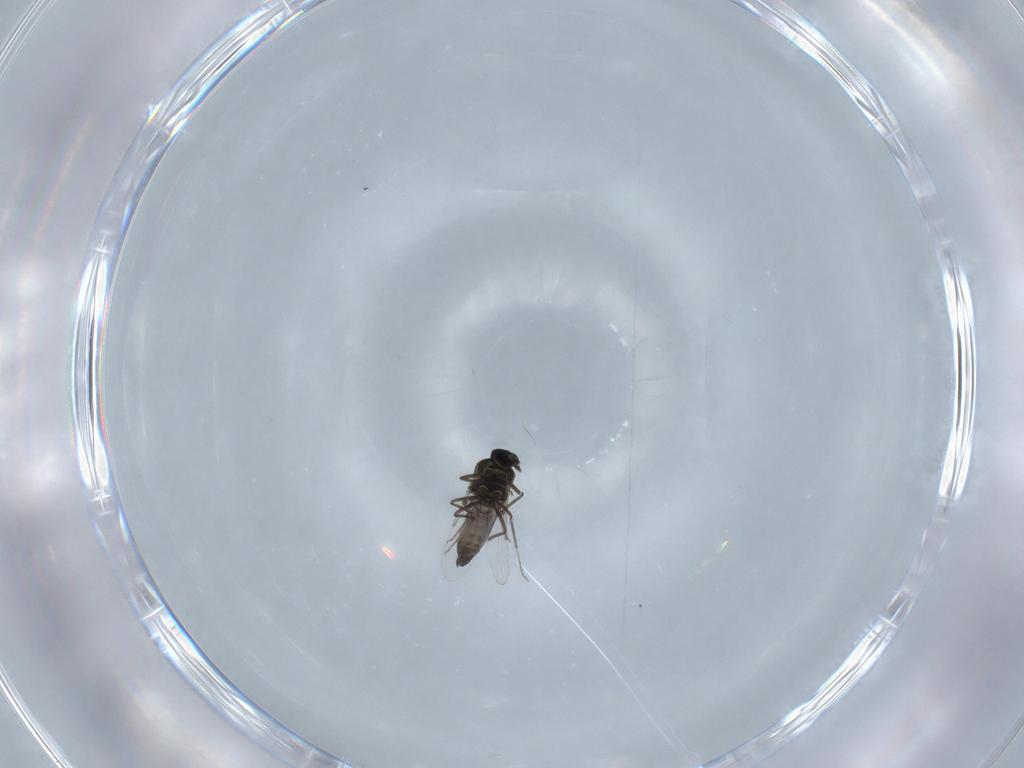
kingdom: Animalia
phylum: Arthropoda
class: Insecta
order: Diptera
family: Ceratopogonidae
